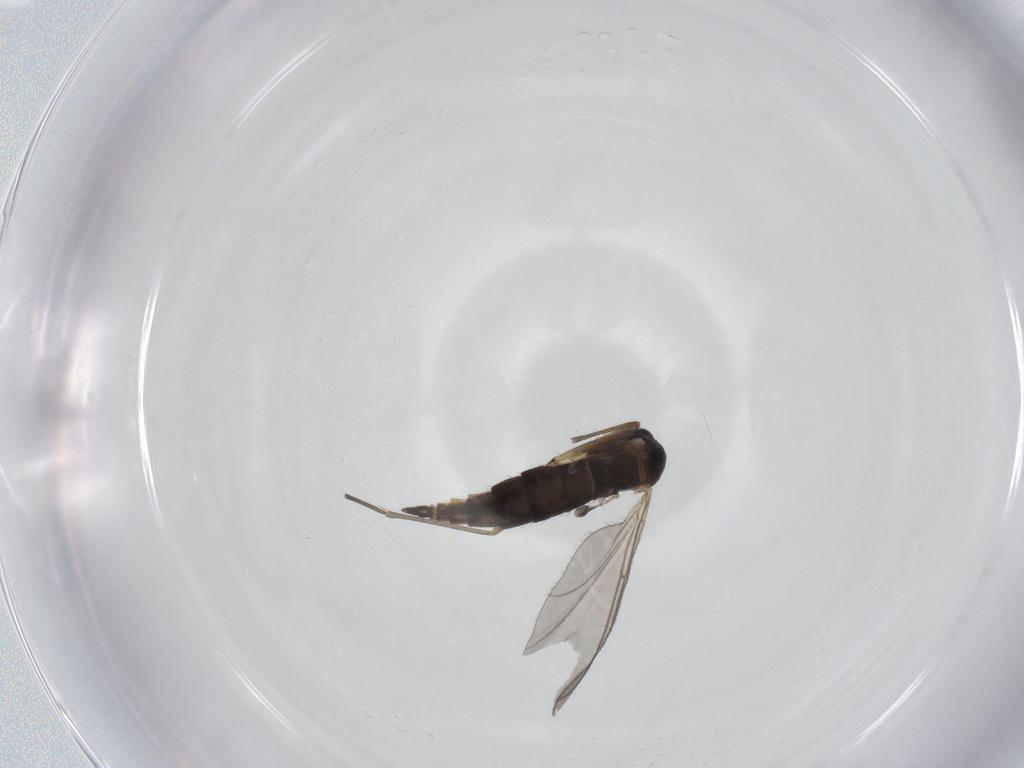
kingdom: Animalia
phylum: Arthropoda
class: Insecta
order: Diptera
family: Sciaridae
